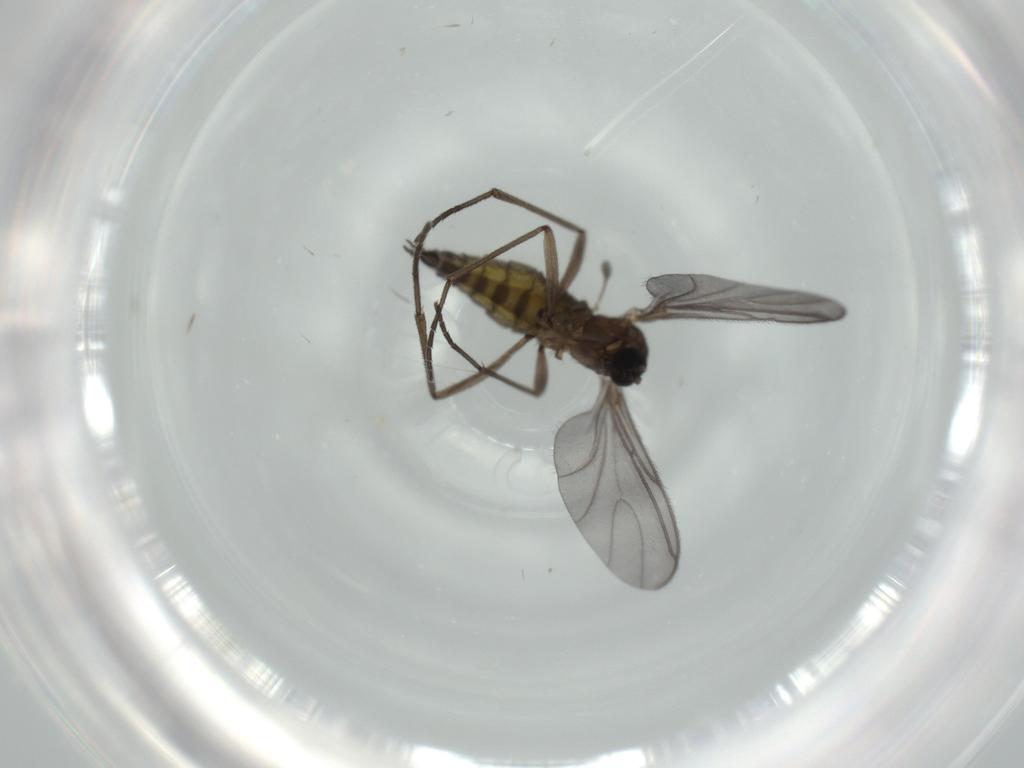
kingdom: Animalia
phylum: Arthropoda
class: Insecta
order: Diptera
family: Sciaridae
